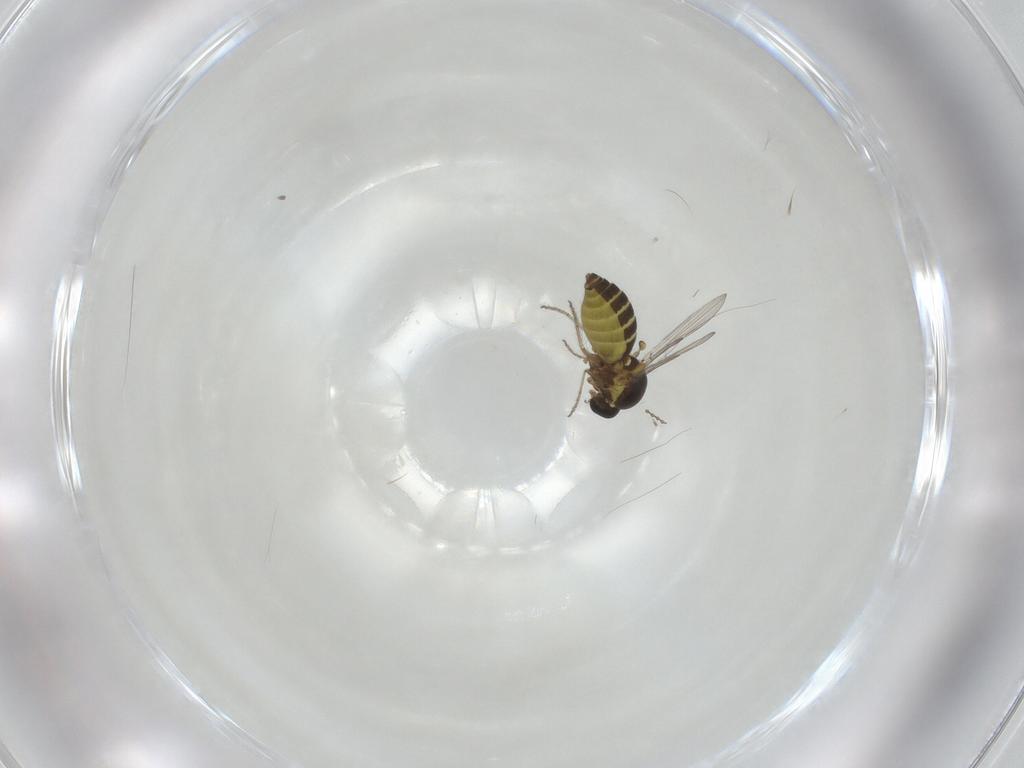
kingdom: Animalia
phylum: Arthropoda
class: Insecta
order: Diptera
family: Ceratopogonidae
